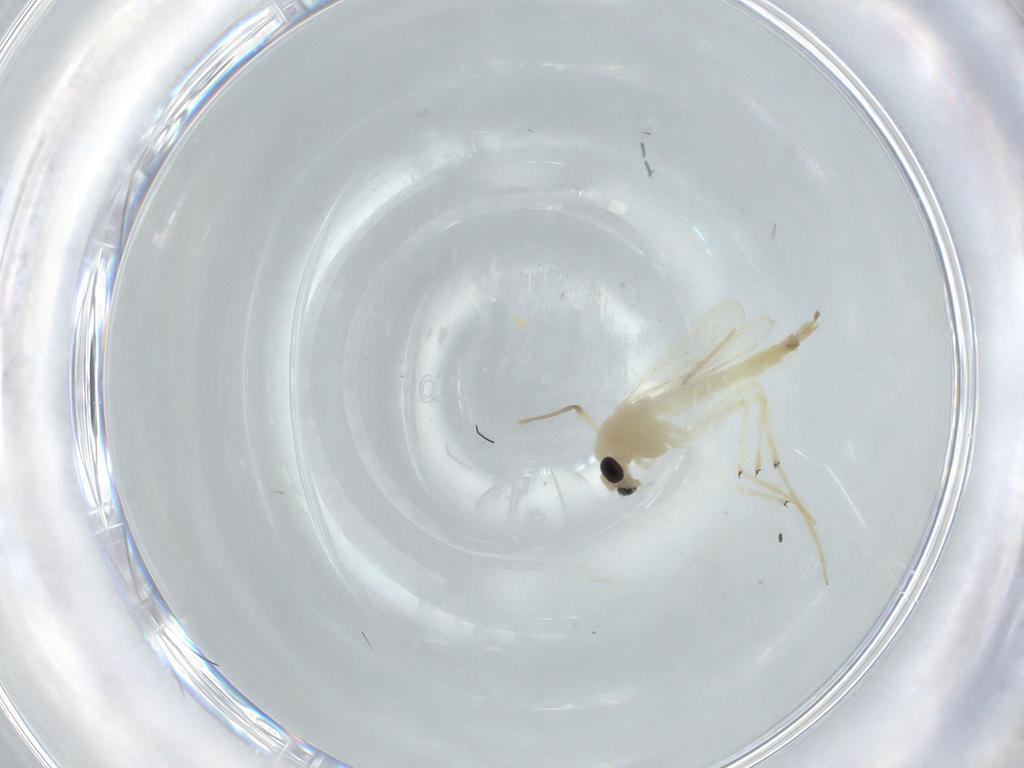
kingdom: Animalia
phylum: Arthropoda
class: Insecta
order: Diptera
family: Chironomidae
